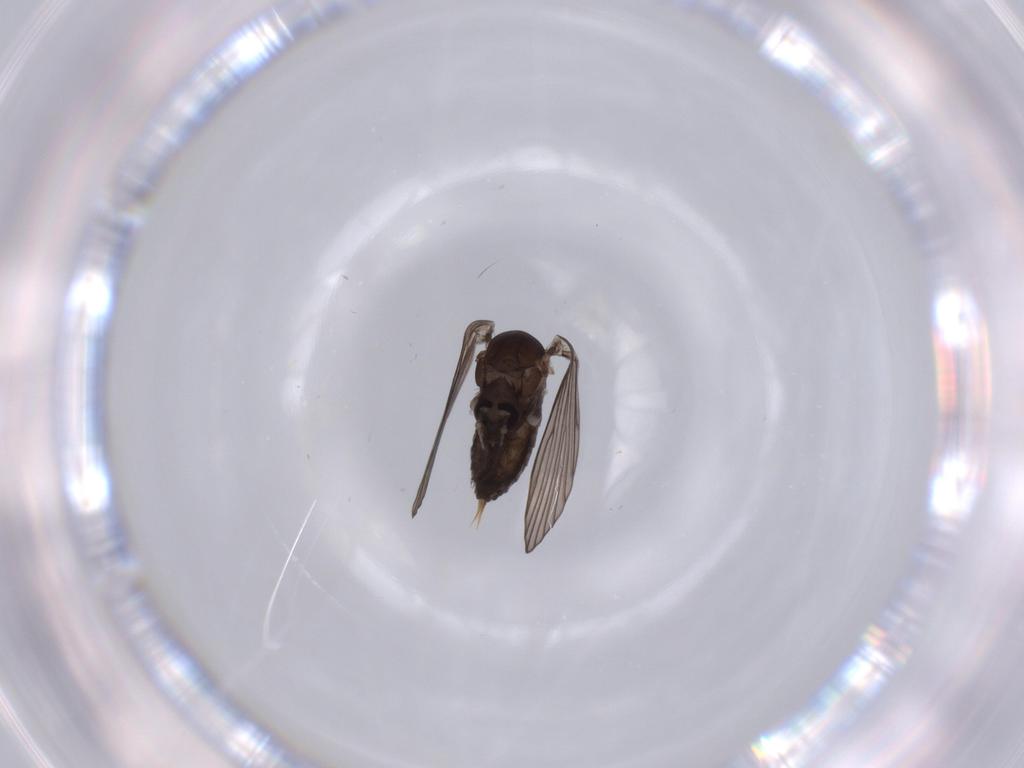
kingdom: Animalia
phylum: Arthropoda
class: Insecta
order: Diptera
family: Psychodidae
